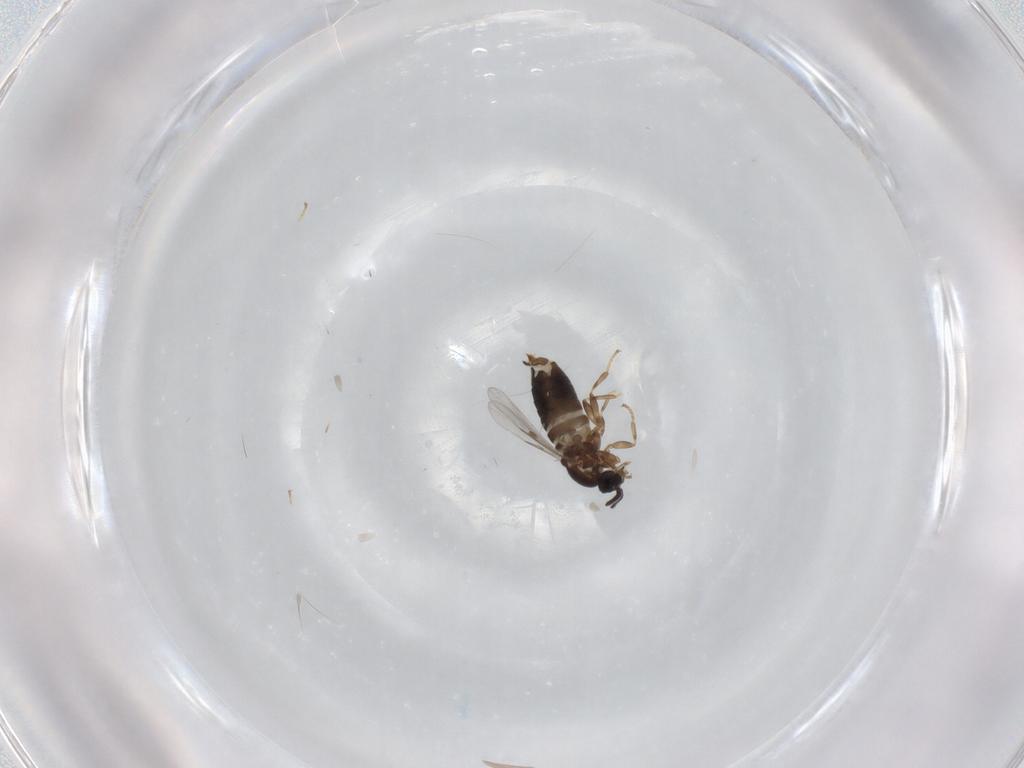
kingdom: Animalia
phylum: Arthropoda
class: Insecta
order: Diptera
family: Scatopsidae
